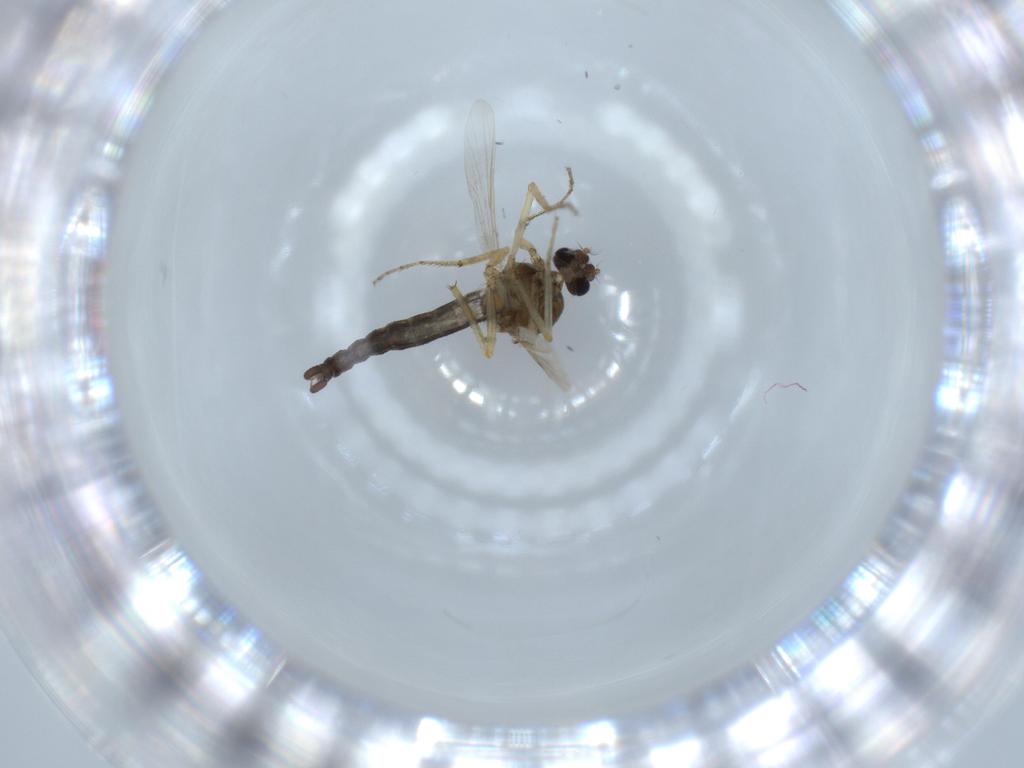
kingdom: Animalia
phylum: Arthropoda
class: Insecta
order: Diptera
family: Ceratopogonidae
